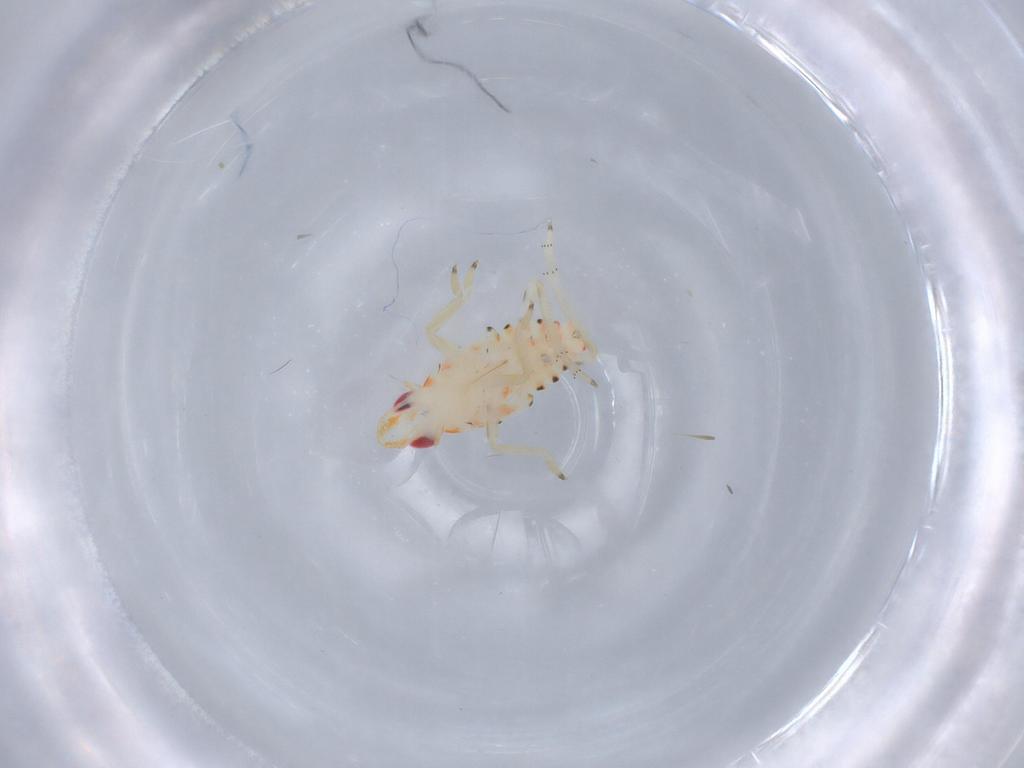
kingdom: Animalia
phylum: Arthropoda
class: Insecta
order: Hemiptera
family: Tropiduchidae
